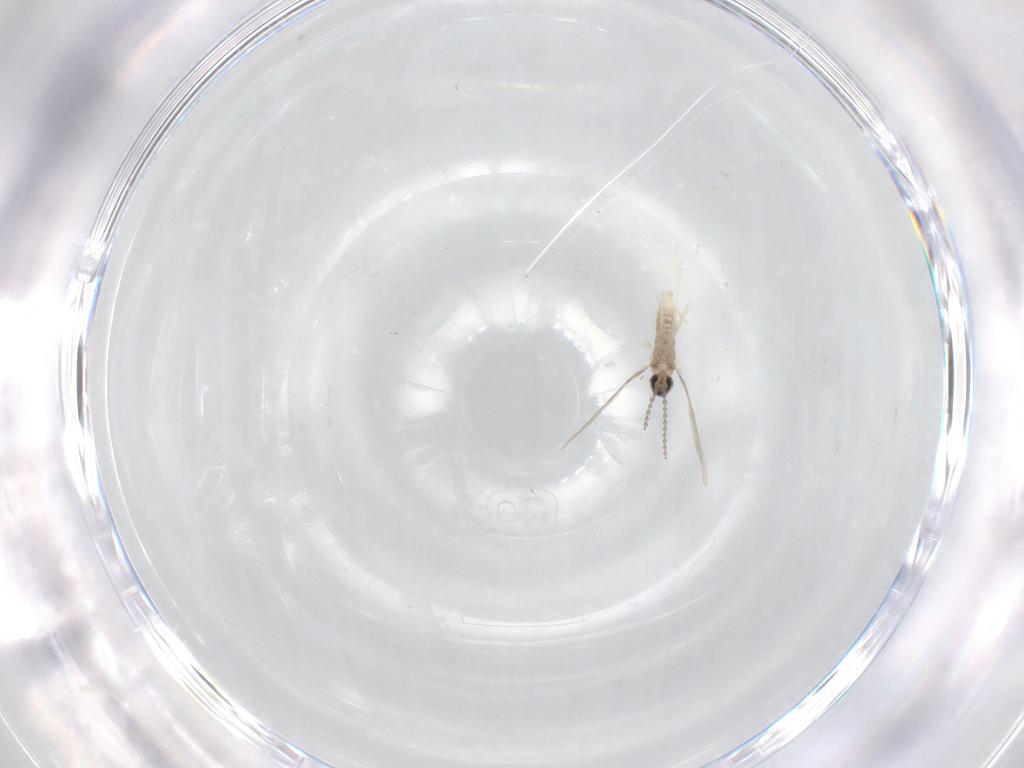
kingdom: Animalia
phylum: Arthropoda
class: Insecta
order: Diptera
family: Cecidomyiidae
